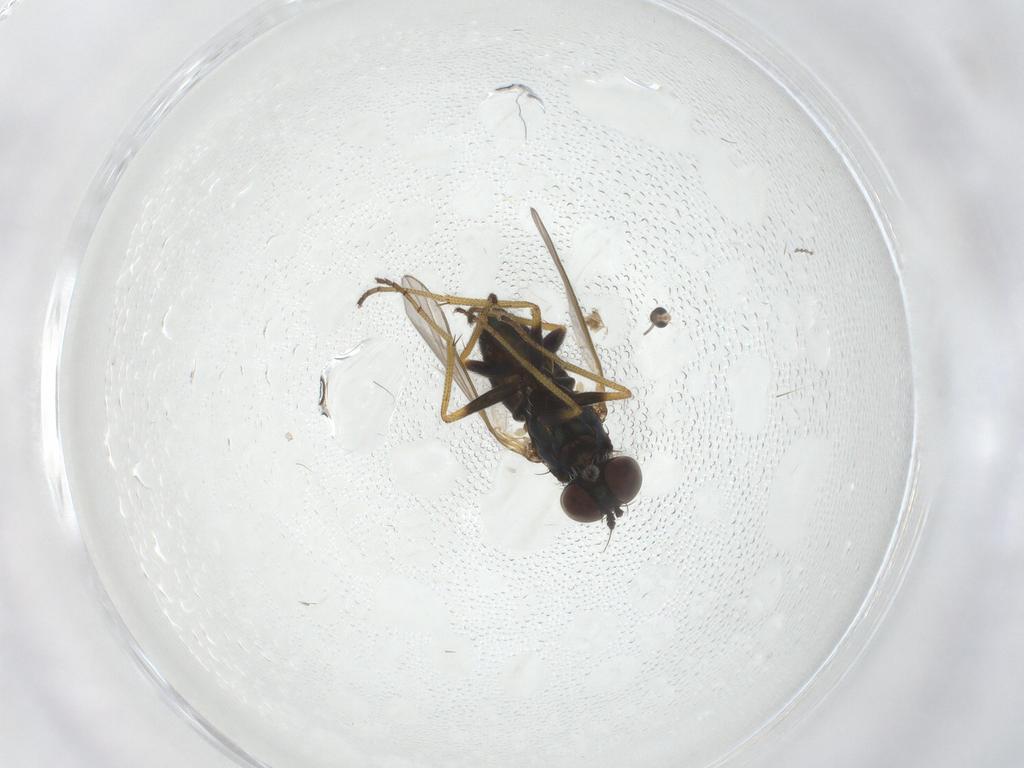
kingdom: Animalia
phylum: Arthropoda
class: Insecta
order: Diptera
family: Dolichopodidae
